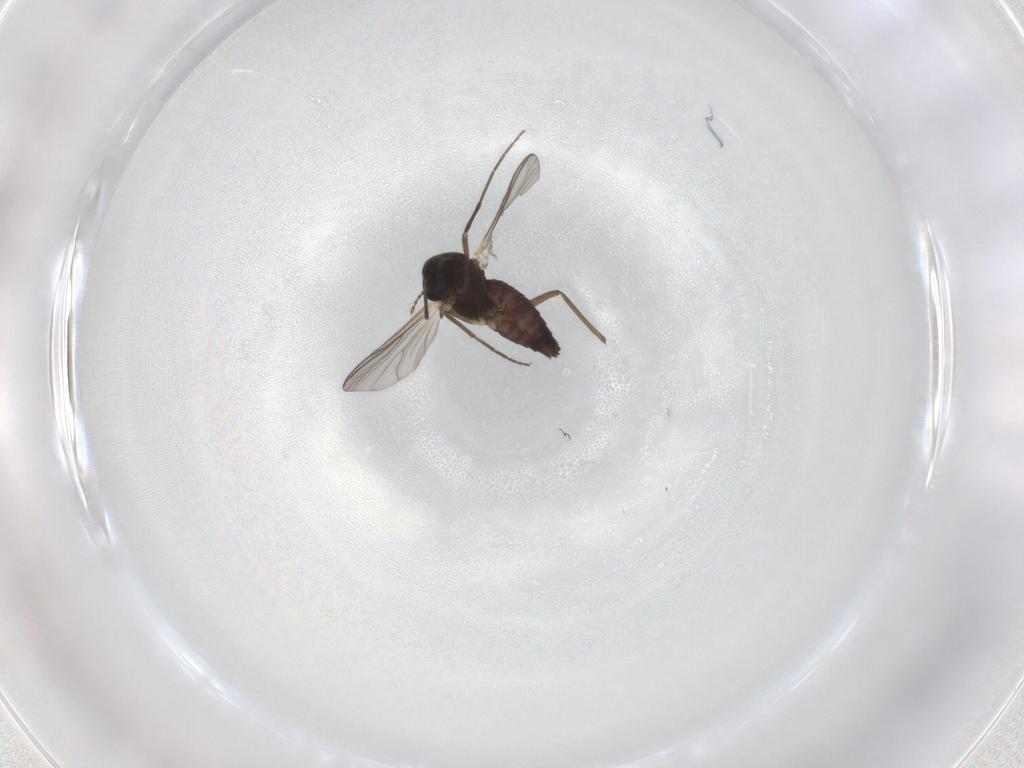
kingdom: Animalia
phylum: Arthropoda
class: Insecta
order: Diptera
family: Chironomidae
